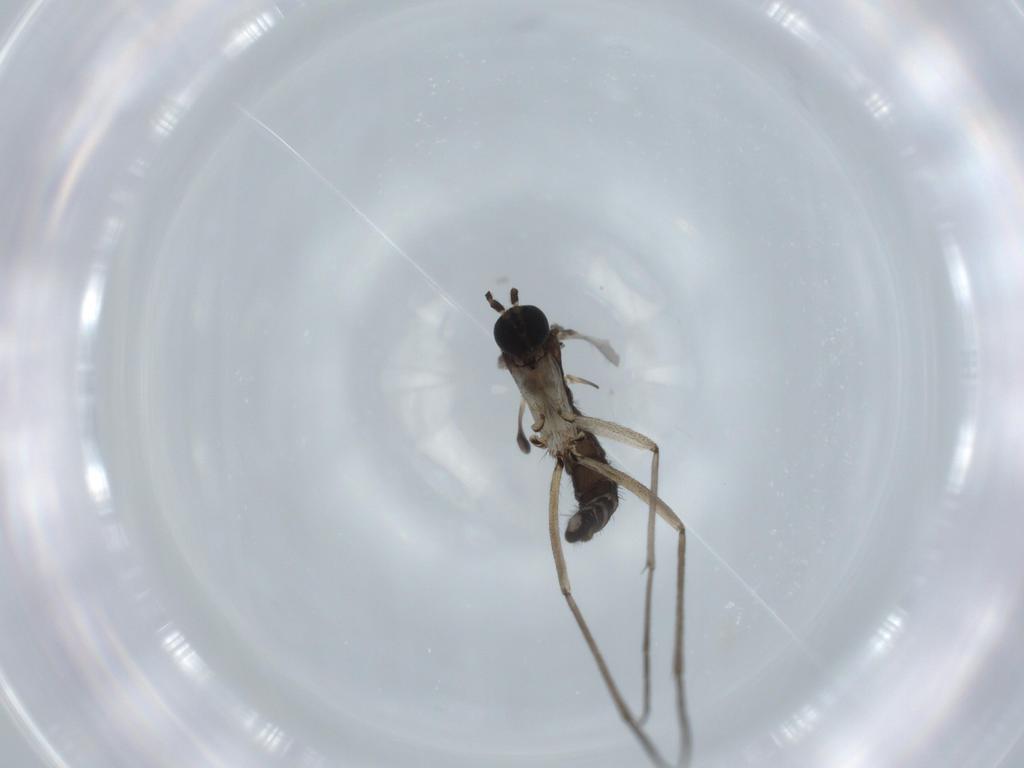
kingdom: Animalia
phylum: Arthropoda
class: Insecta
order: Diptera
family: Sciaridae
